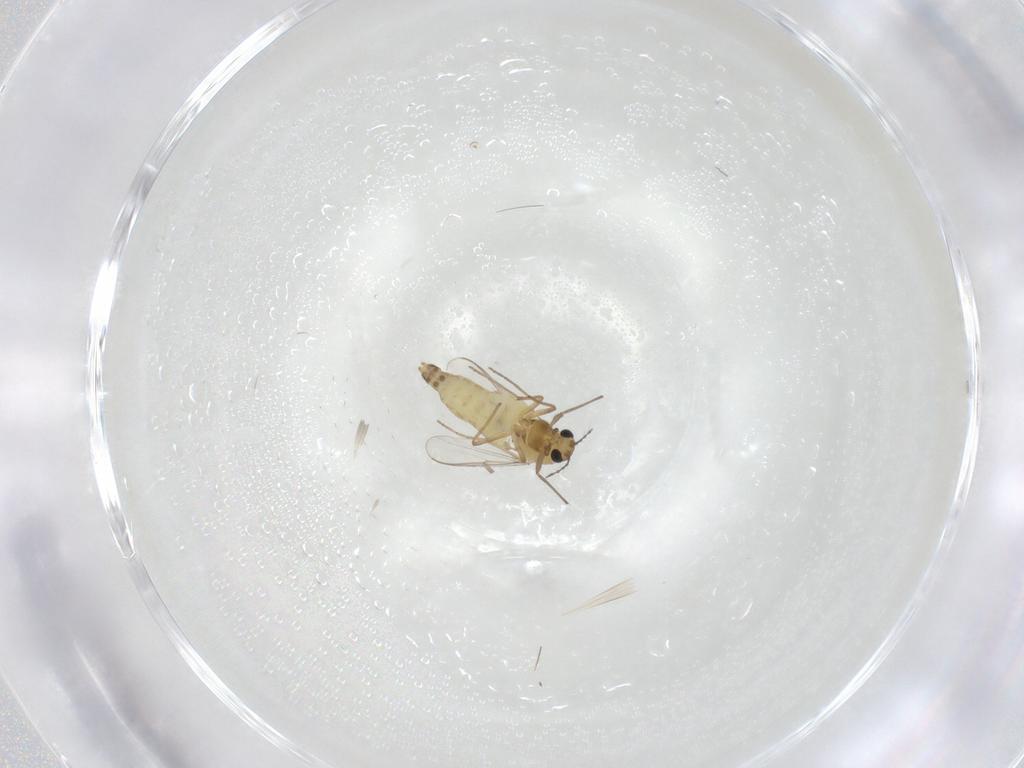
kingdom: Animalia
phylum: Arthropoda
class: Insecta
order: Diptera
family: Chironomidae
